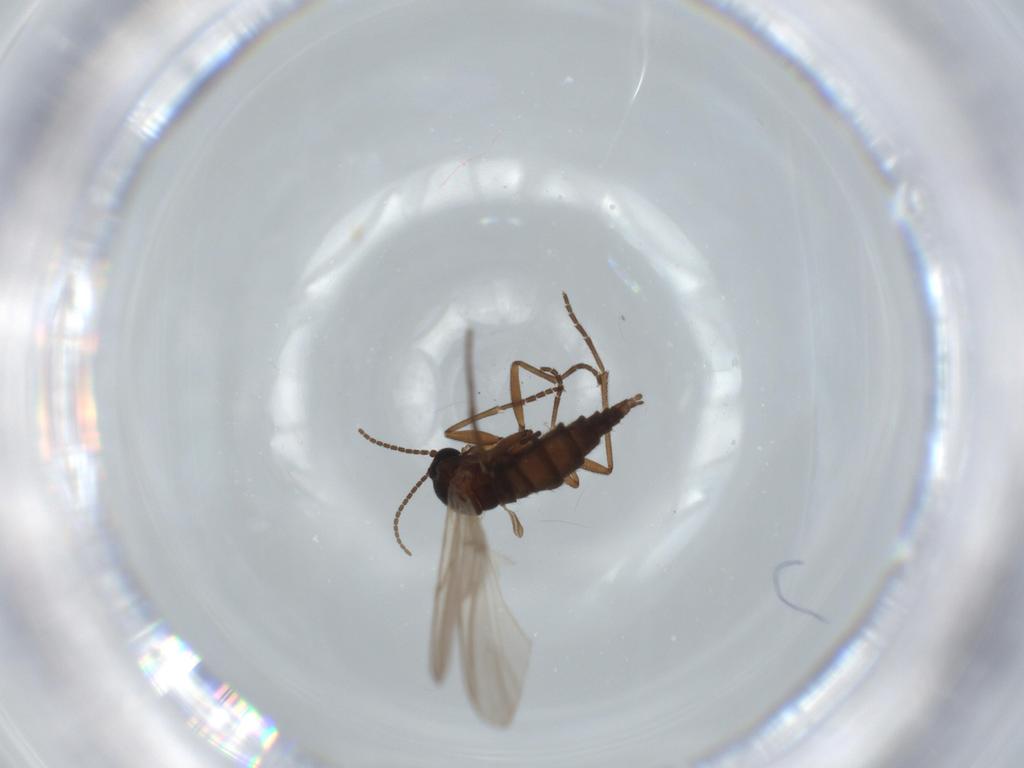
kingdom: Animalia
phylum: Arthropoda
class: Insecta
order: Diptera
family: Sciaridae
